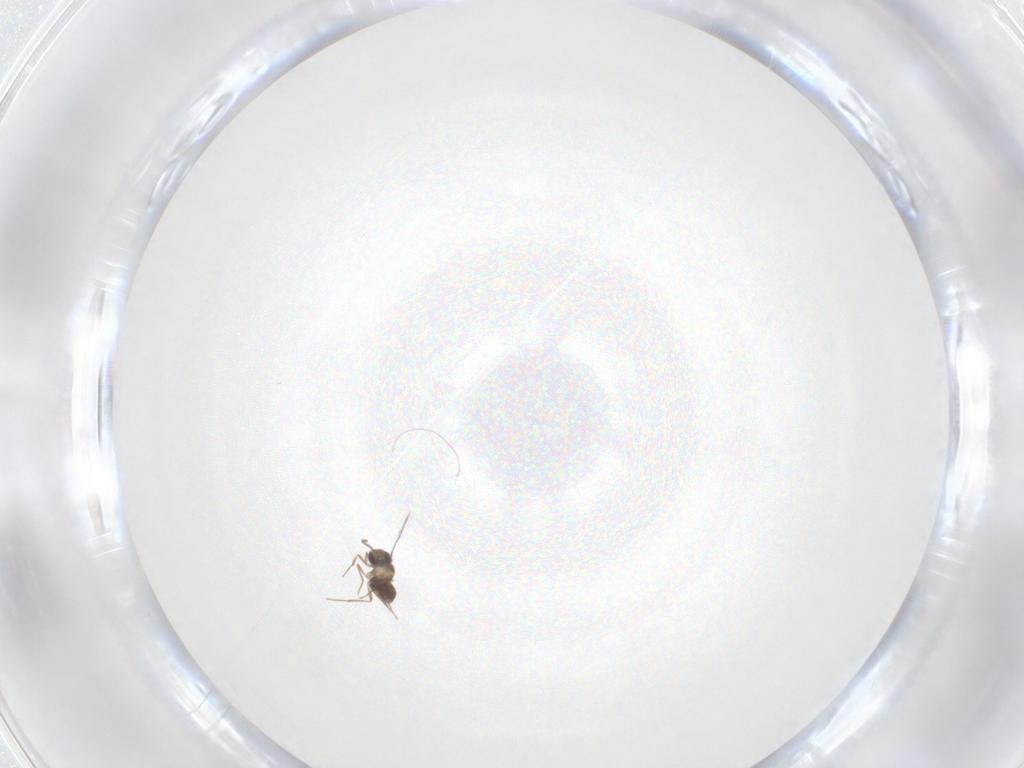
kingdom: Animalia
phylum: Arthropoda
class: Insecta
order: Hymenoptera
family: Mymaridae
